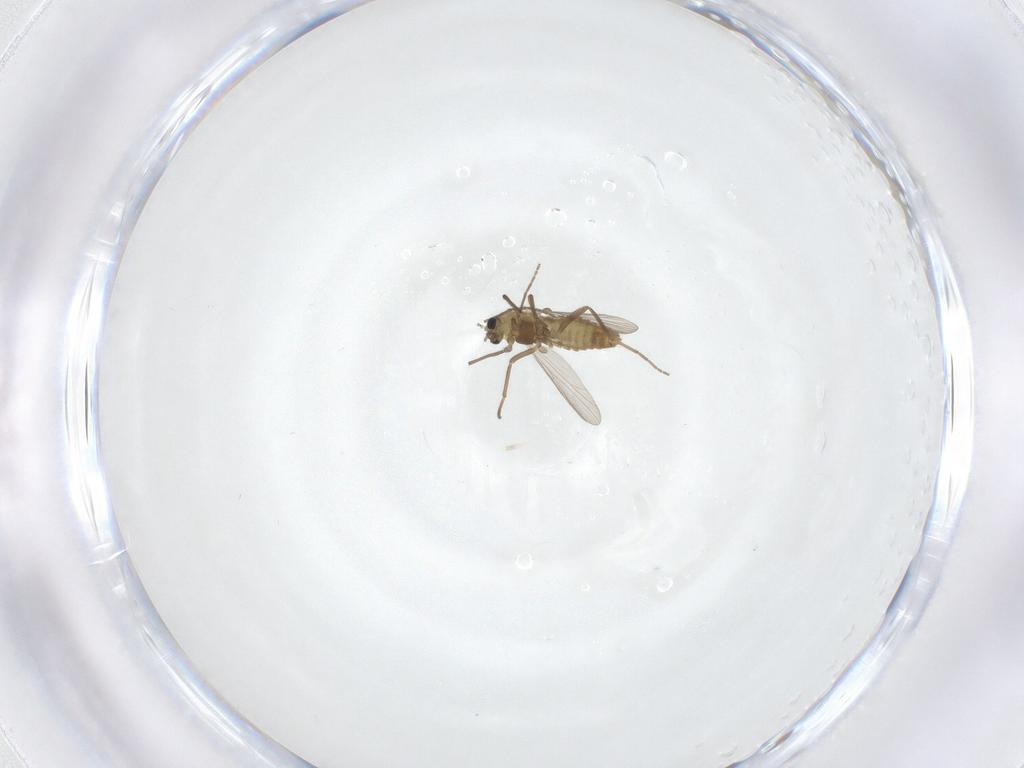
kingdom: Animalia
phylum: Arthropoda
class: Insecta
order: Diptera
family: Chironomidae
